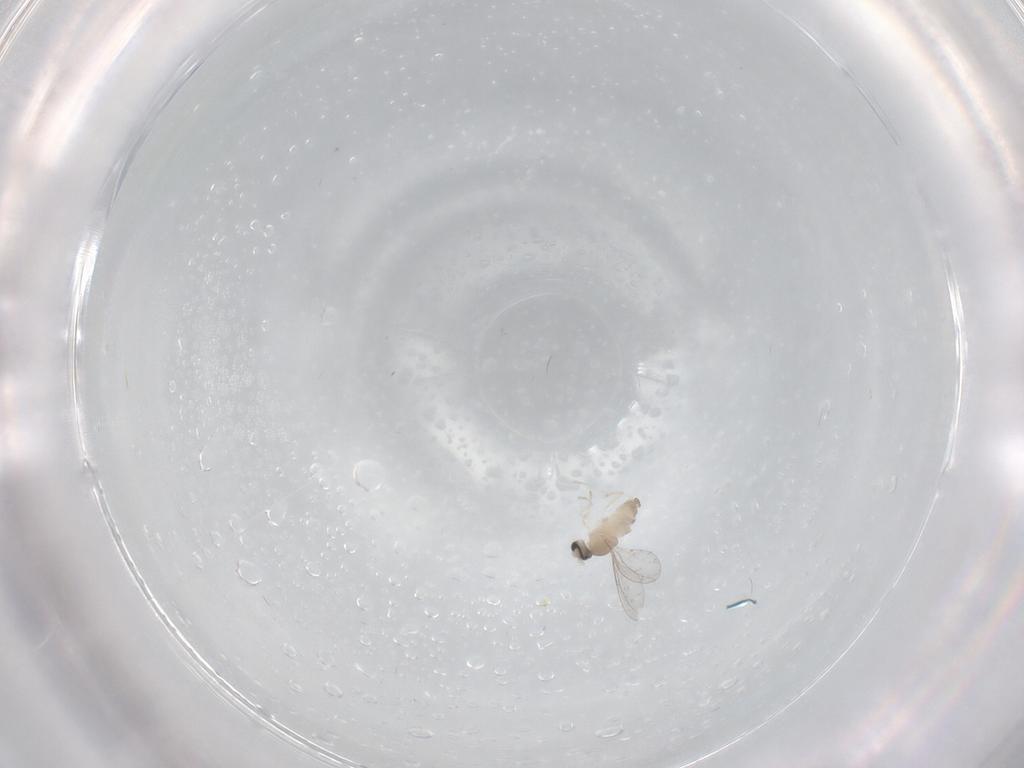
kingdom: Animalia
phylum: Arthropoda
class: Insecta
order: Diptera
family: Cecidomyiidae
